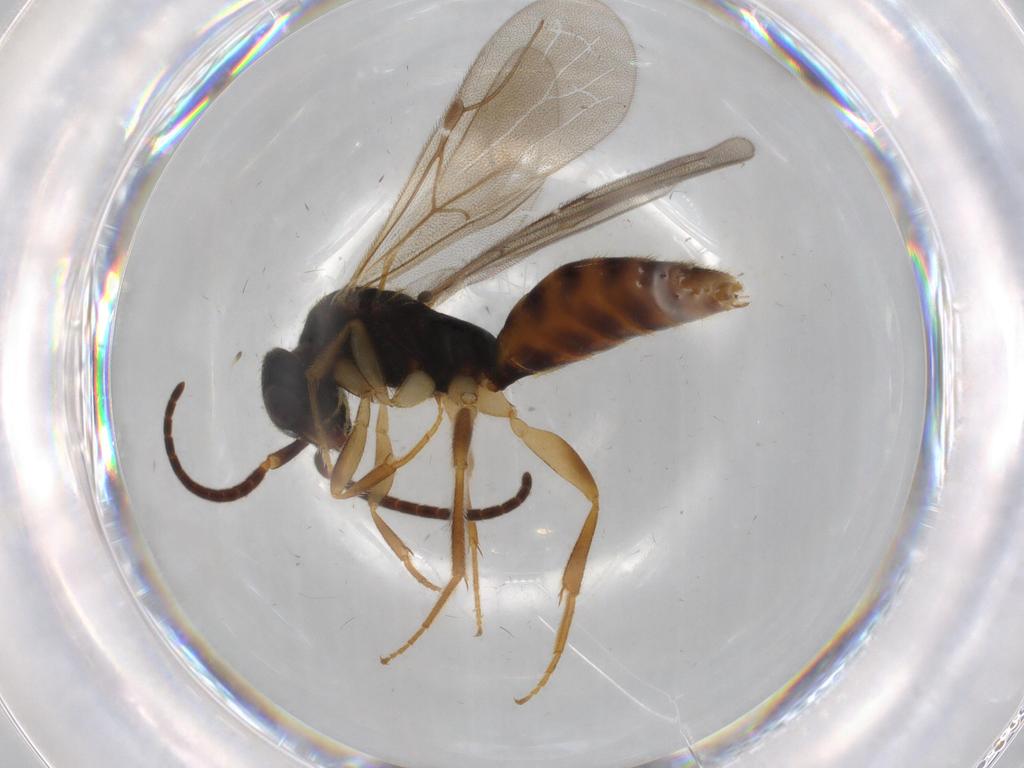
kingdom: Animalia
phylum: Arthropoda
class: Insecta
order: Hymenoptera
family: Bethylidae
